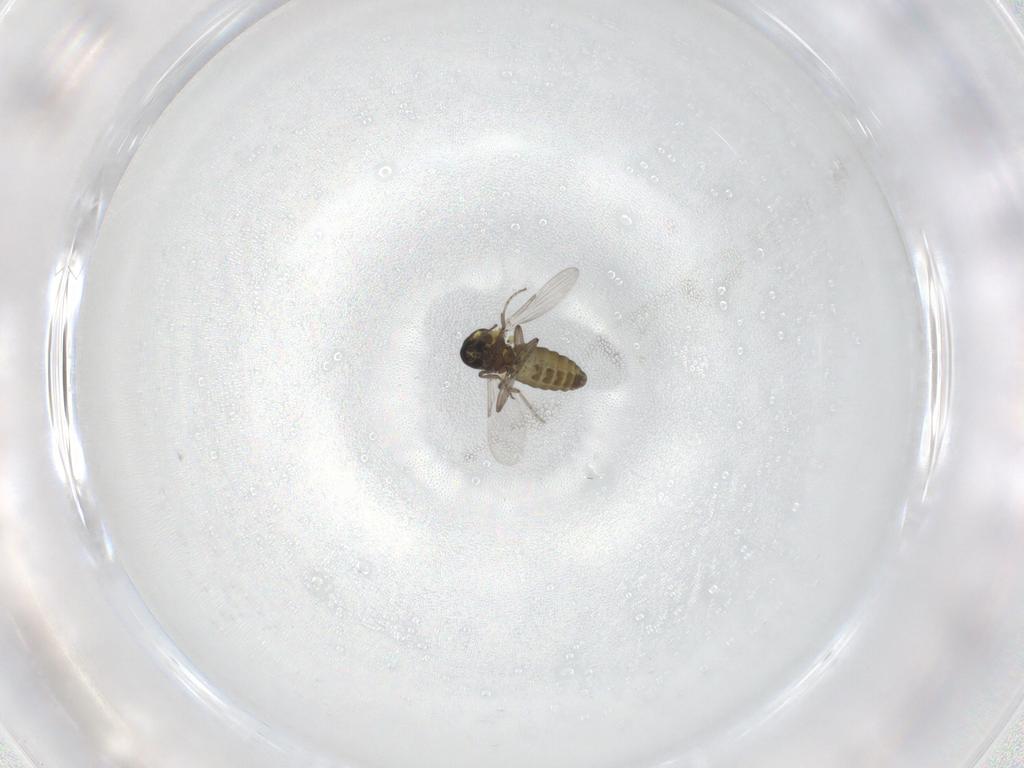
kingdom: Animalia
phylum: Arthropoda
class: Insecta
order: Diptera
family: Ceratopogonidae
